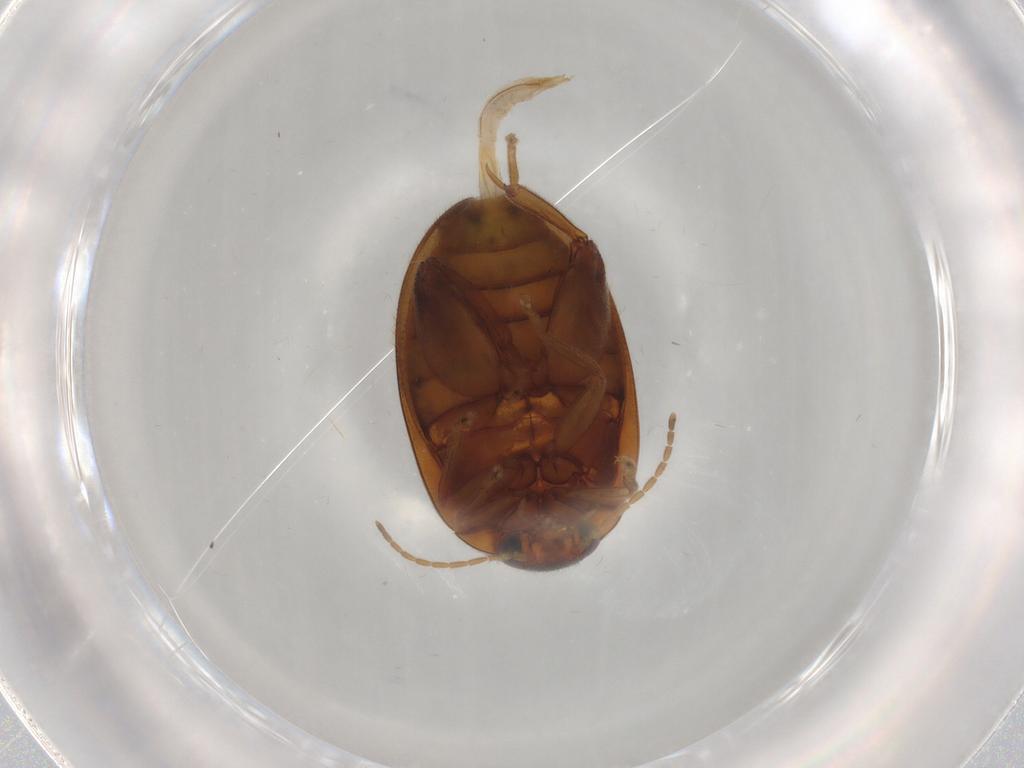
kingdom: Animalia
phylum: Arthropoda
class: Insecta
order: Coleoptera
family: Scirtidae
